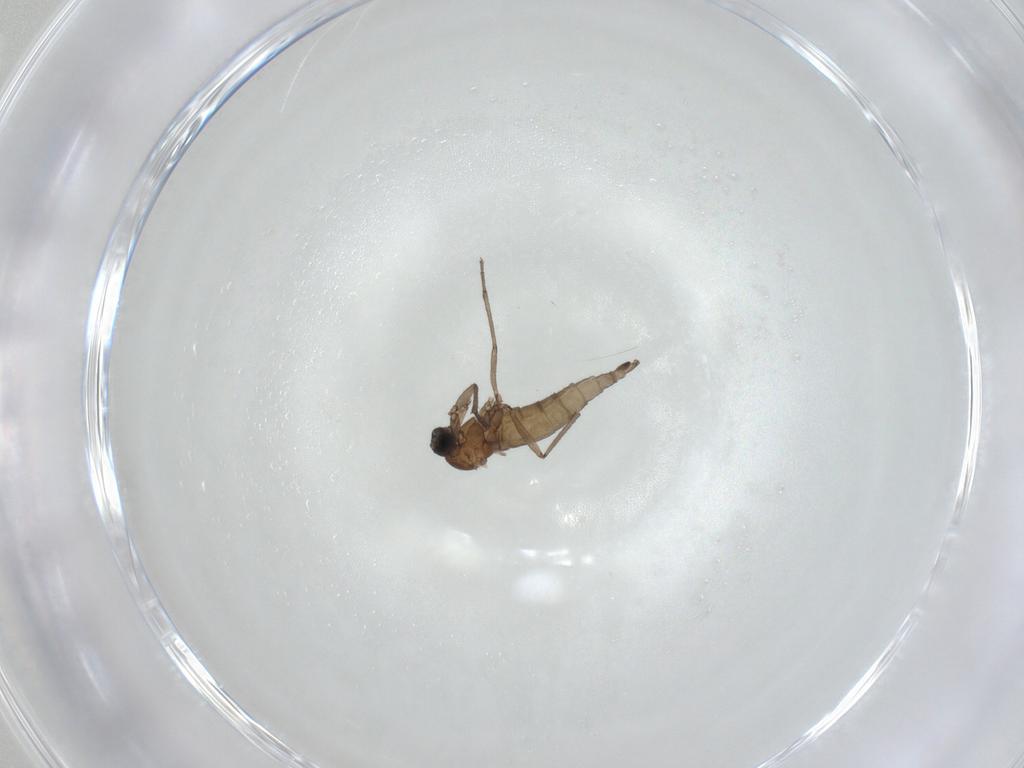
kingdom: Animalia
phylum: Arthropoda
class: Insecta
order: Diptera
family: Sciaridae
